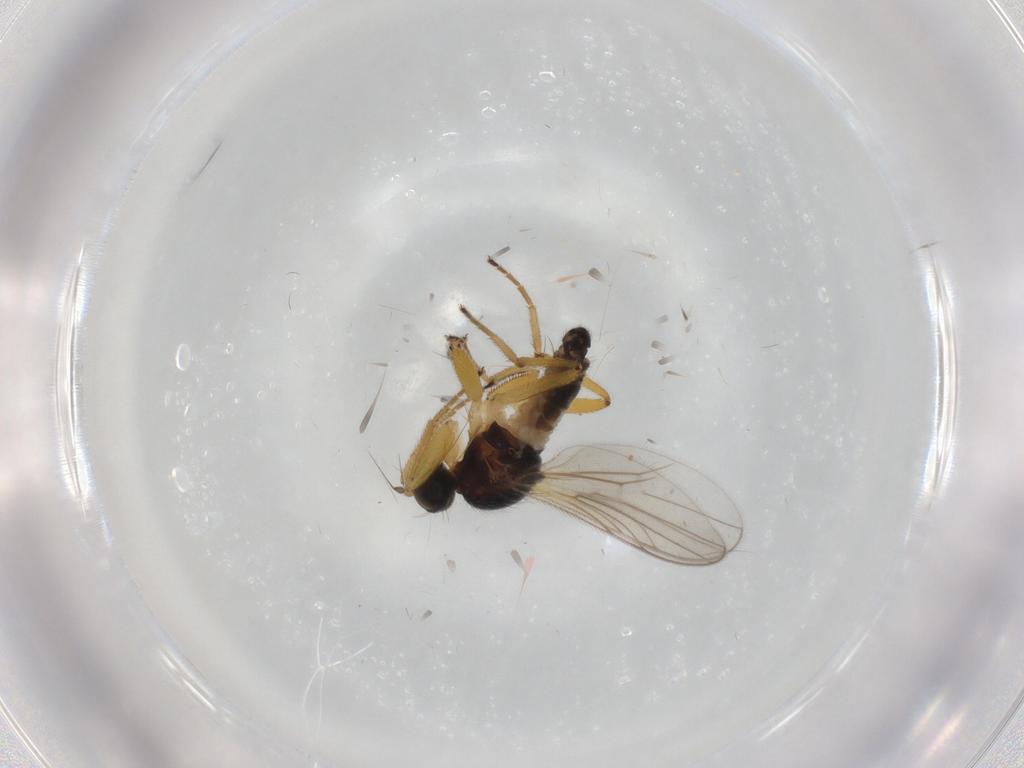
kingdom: Animalia
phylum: Arthropoda
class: Insecta
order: Diptera
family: Hybotidae
